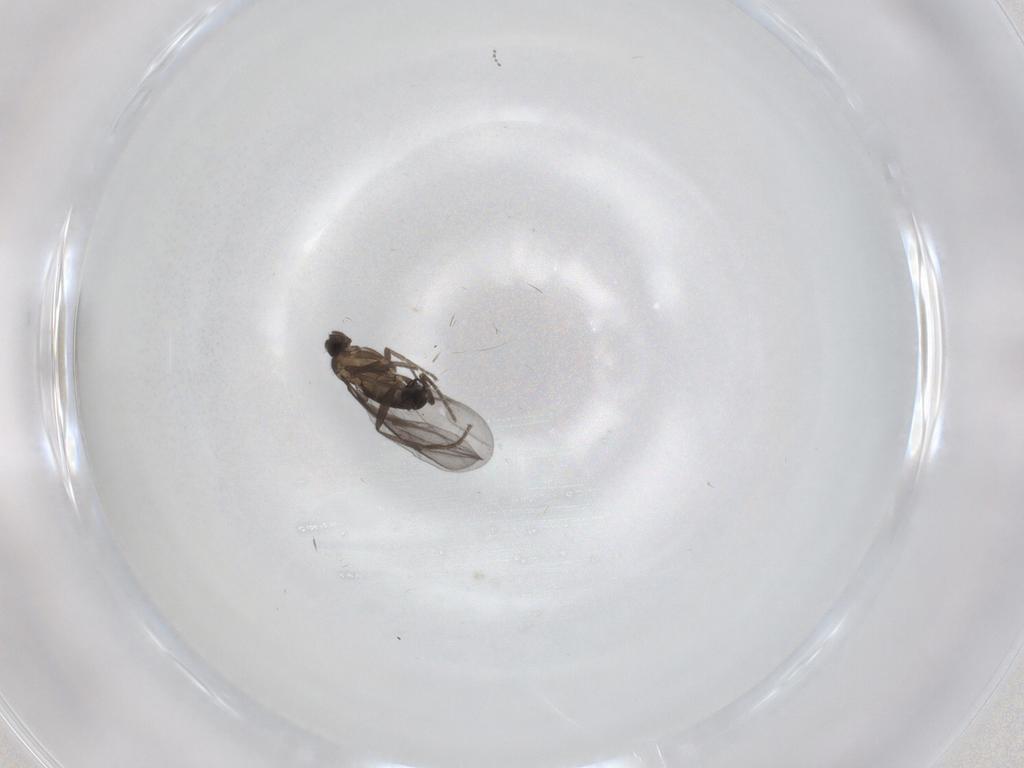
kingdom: Animalia
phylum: Arthropoda
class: Insecta
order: Diptera
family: Phoridae
